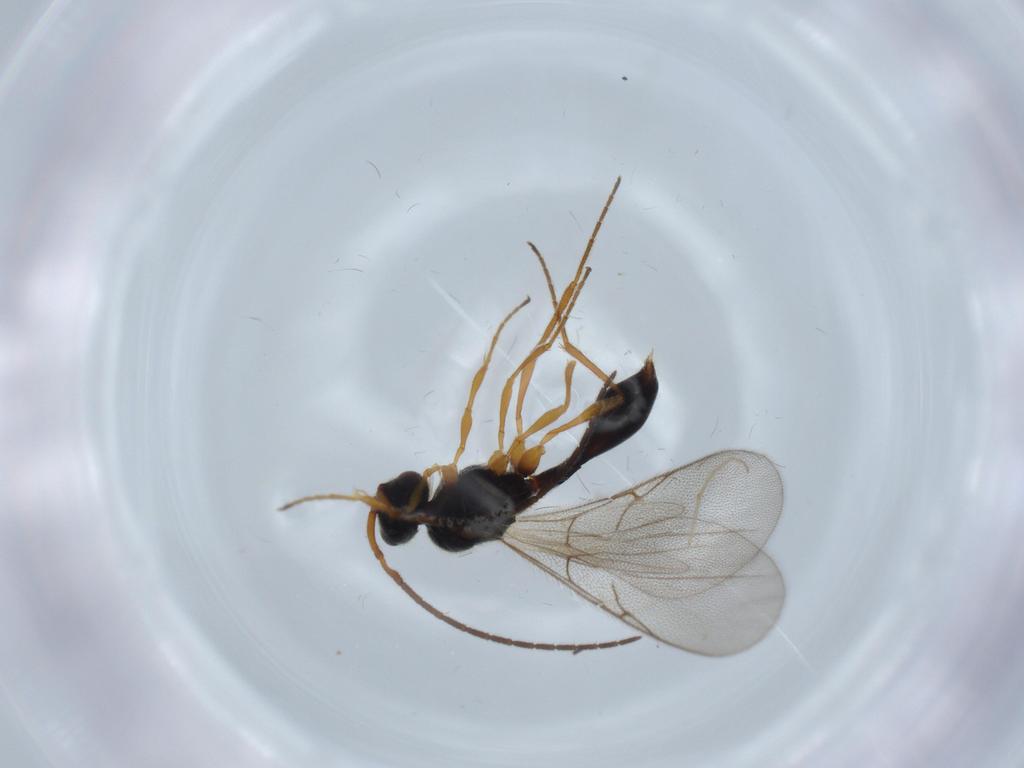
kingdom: Animalia
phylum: Arthropoda
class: Insecta
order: Hymenoptera
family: Diapriidae
